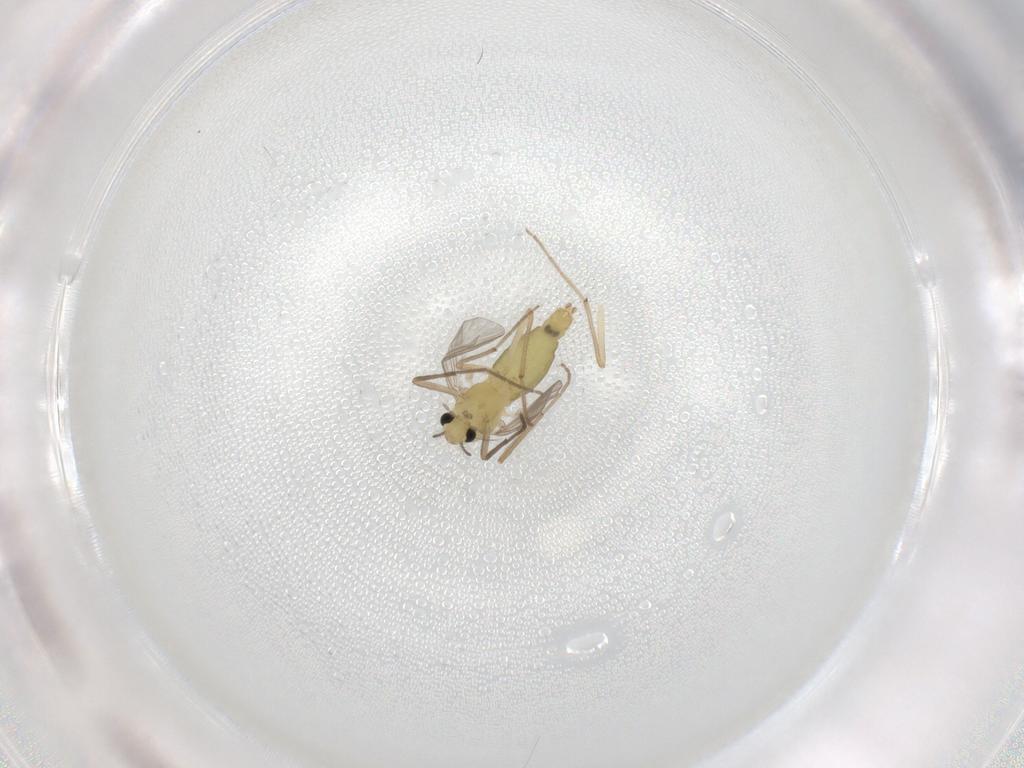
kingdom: Animalia
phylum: Arthropoda
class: Insecta
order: Diptera
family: Chironomidae
